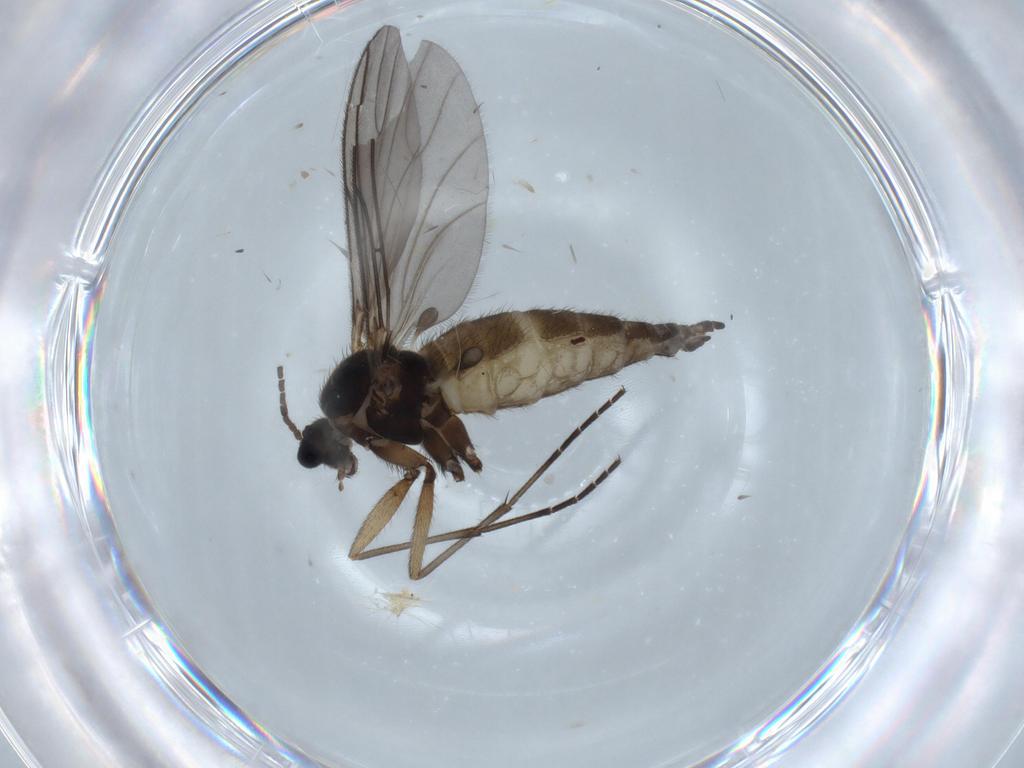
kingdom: Animalia
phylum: Arthropoda
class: Insecta
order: Diptera
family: Sciaridae
